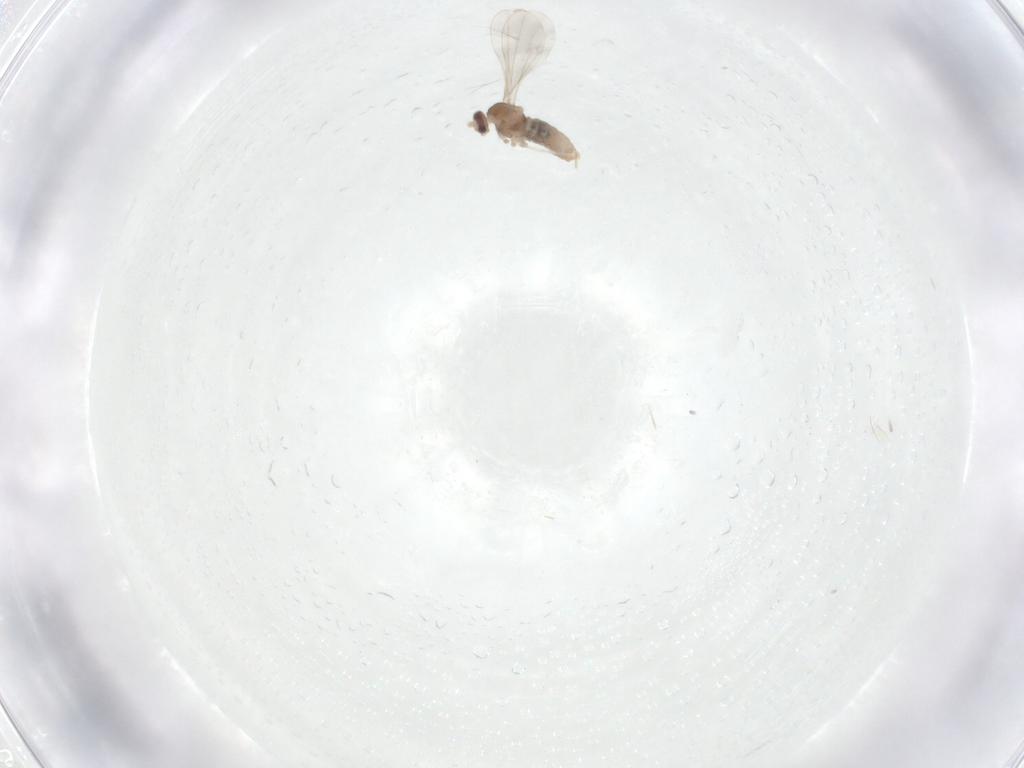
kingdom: Animalia
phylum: Arthropoda
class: Insecta
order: Diptera
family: Cecidomyiidae
